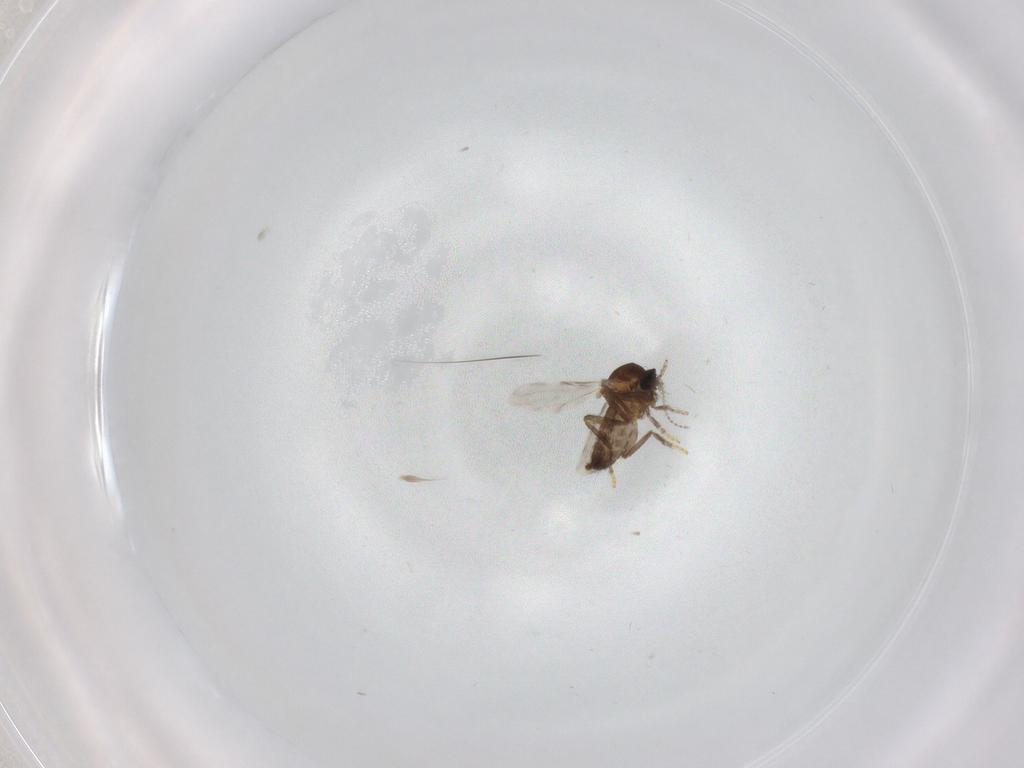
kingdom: Animalia
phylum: Arthropoda
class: Insecta
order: Diptera
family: Ceratopogonidae
